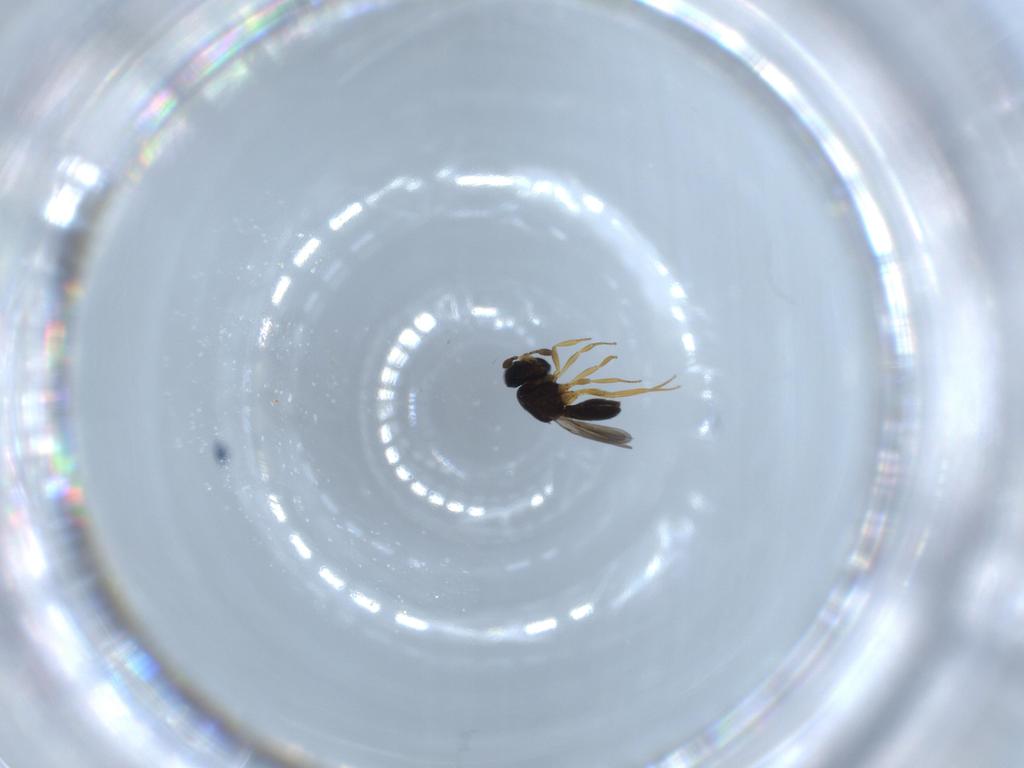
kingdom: Animalia
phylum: Arthropoda
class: Insecta
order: Hymenoptera
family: Scelionidae
